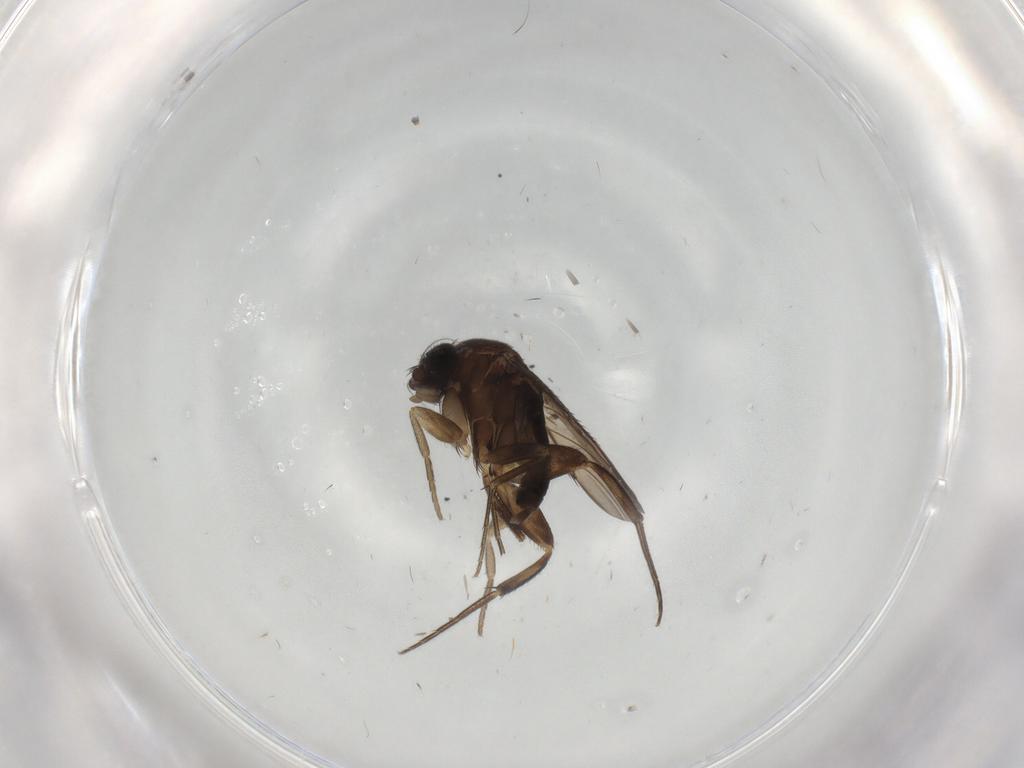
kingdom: Animalia
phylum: Arthropoda
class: Insecta
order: Diptera
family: Phoridae
